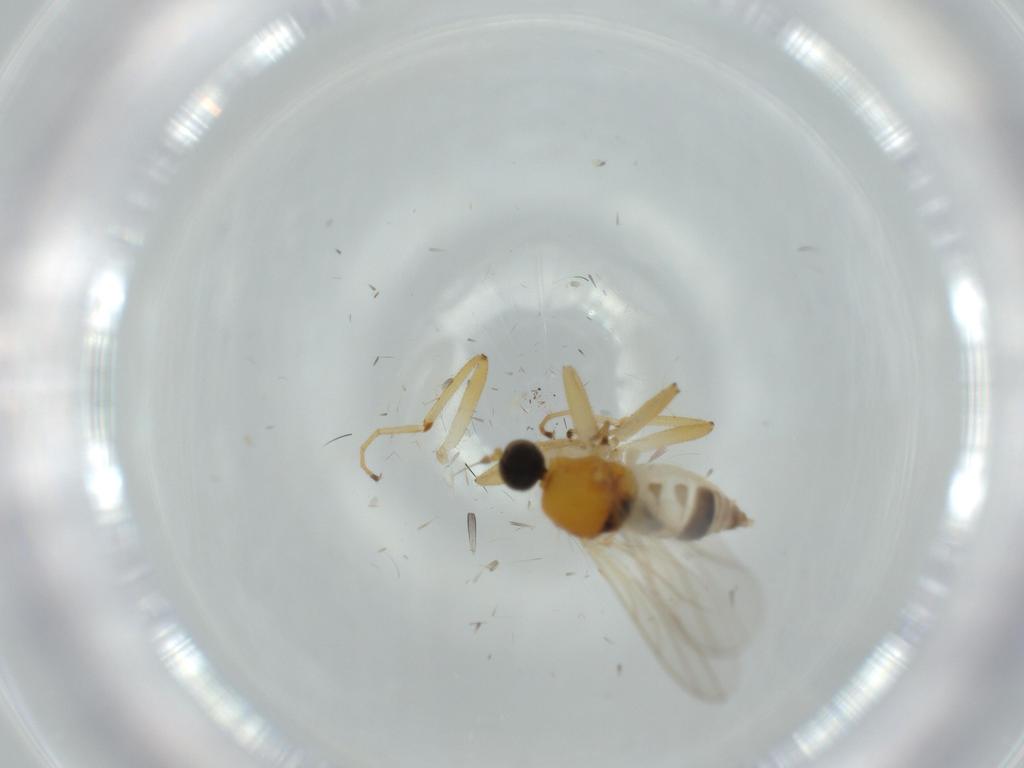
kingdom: Animalia
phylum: Arthropoda
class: Insecta
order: Diptera
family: Hybotidae
